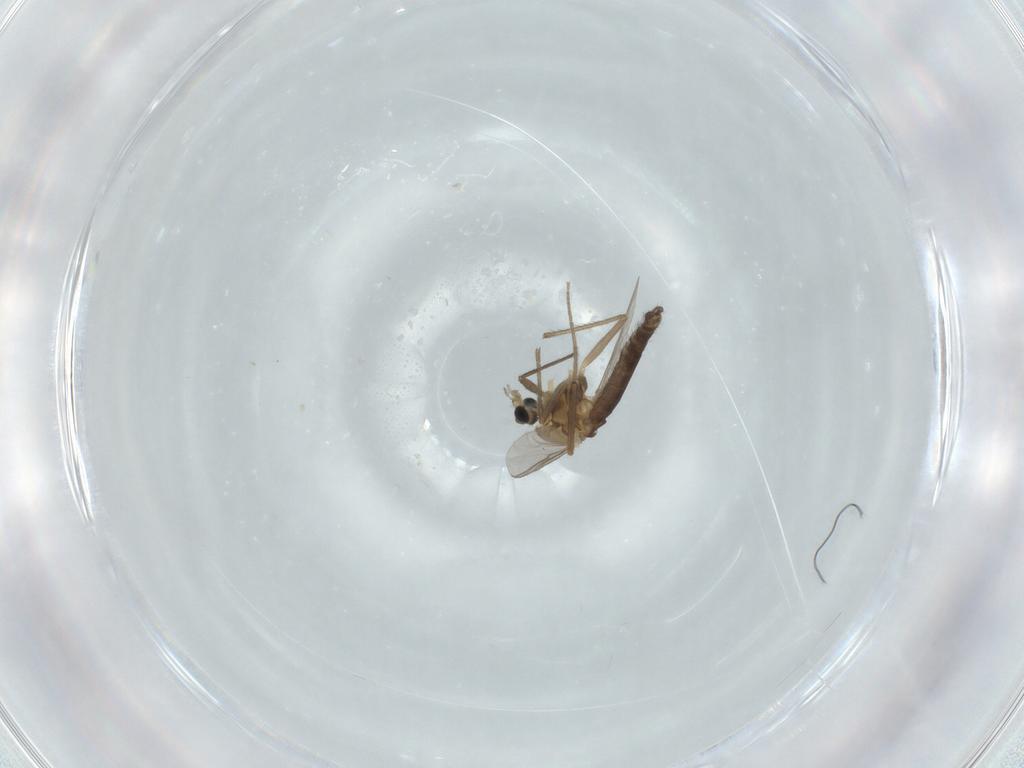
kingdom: Animalia
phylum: Arthropoda
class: Insecta
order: Diptera
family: Chironomidae
